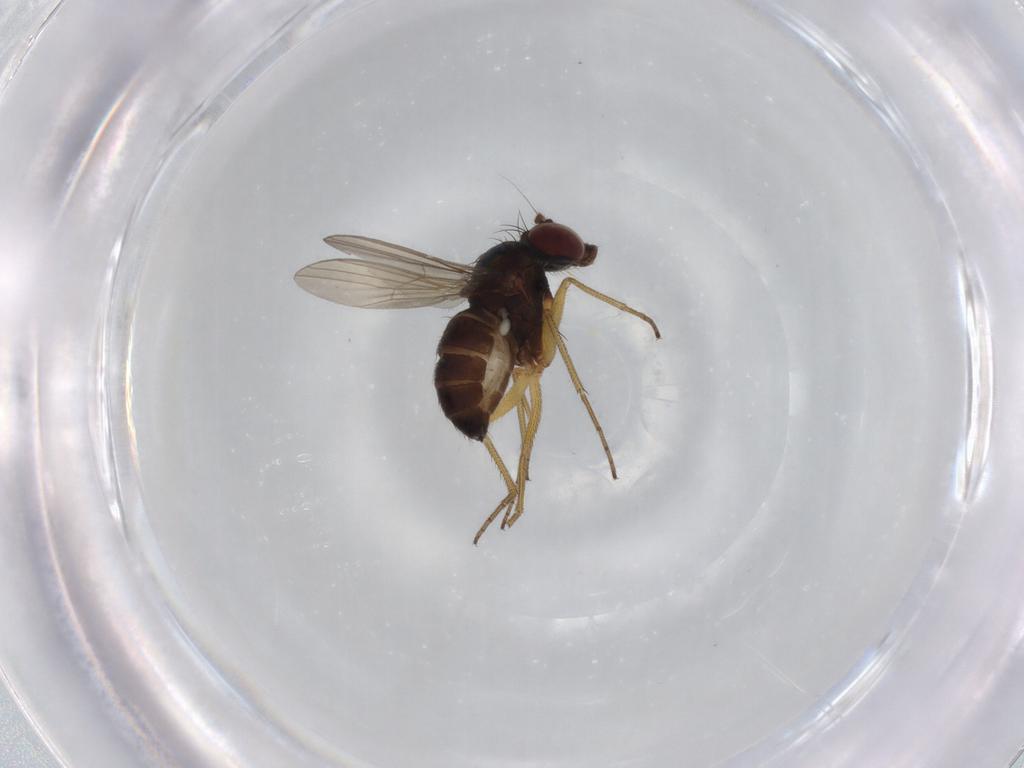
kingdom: Animalia
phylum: Arthropoda
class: Insecta
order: Diptera
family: Dolichopodidae
